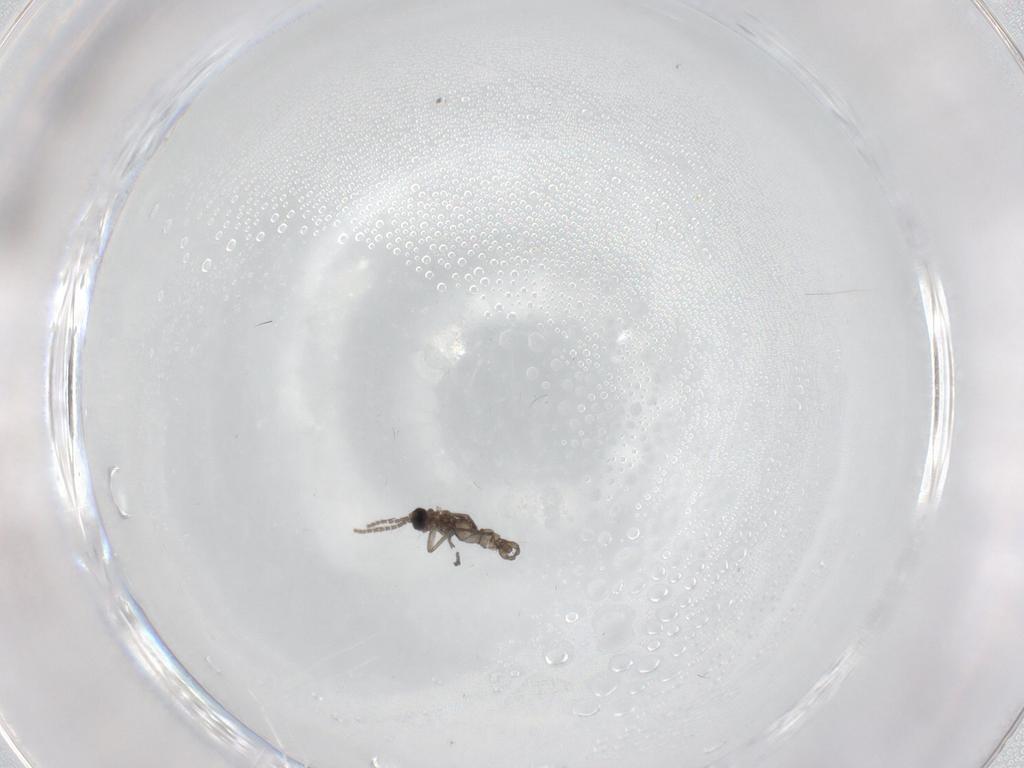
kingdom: Animalia
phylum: Arthropoda
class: Insecta
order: Diptera
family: Sciaridae
